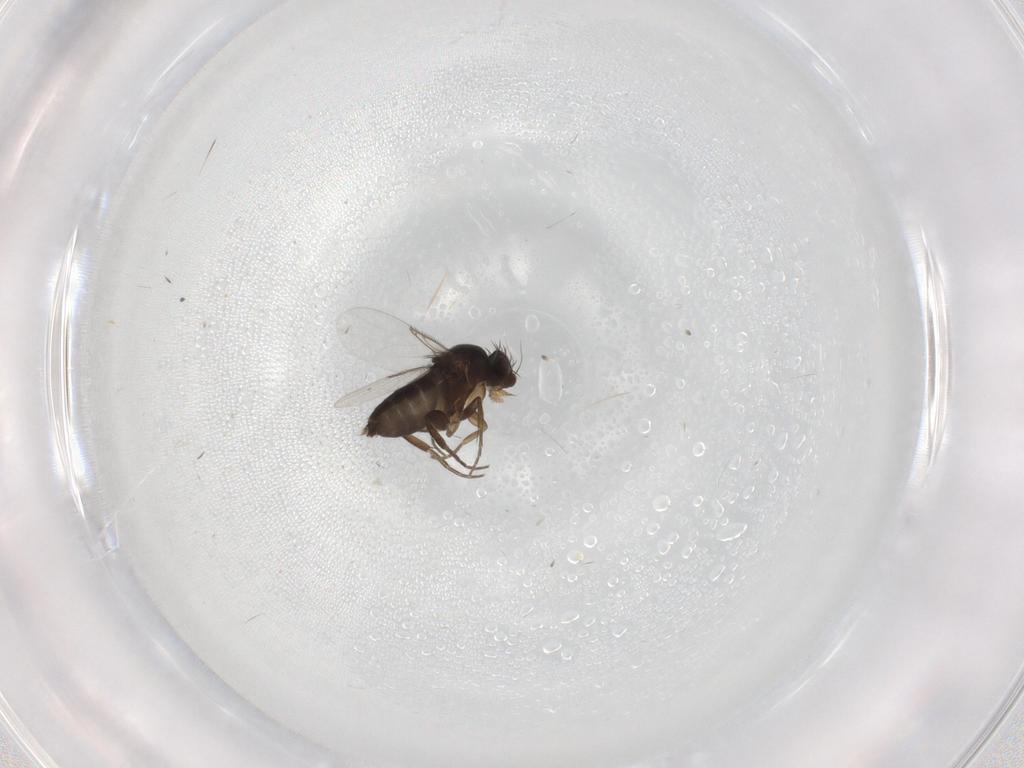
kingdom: Animalia
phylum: Arthropoda
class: Insecta
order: Diptera
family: Phoridae
